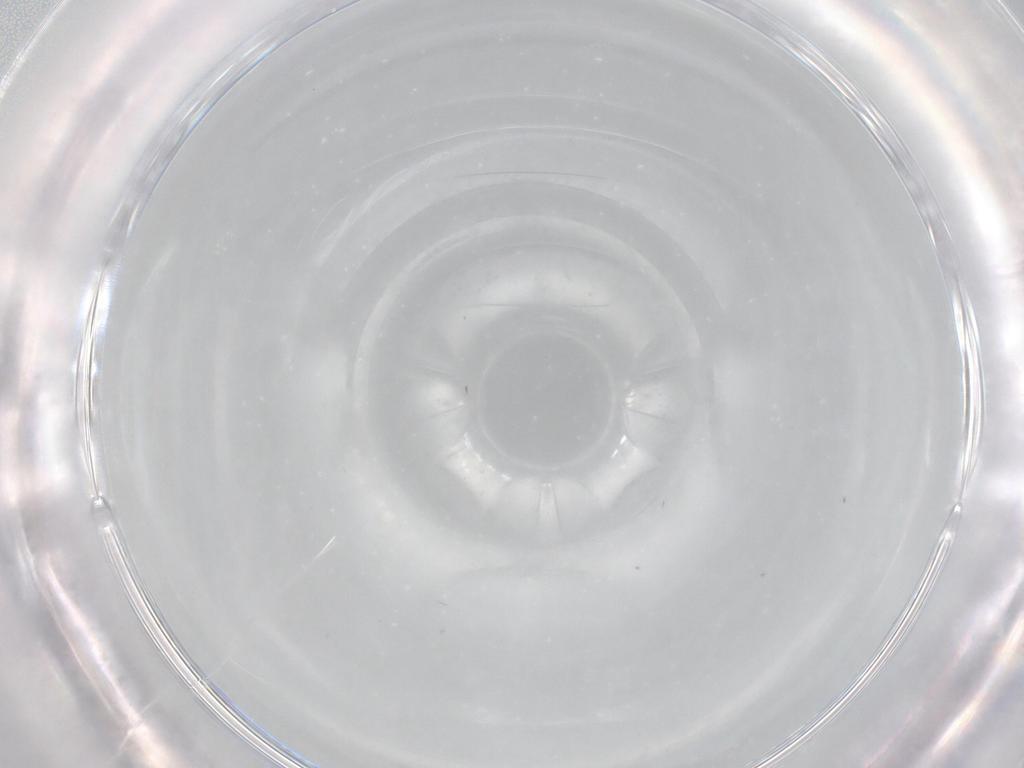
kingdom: Animalia
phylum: Arthropoda
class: Insecta
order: Diptera
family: Cecidomyiidae
